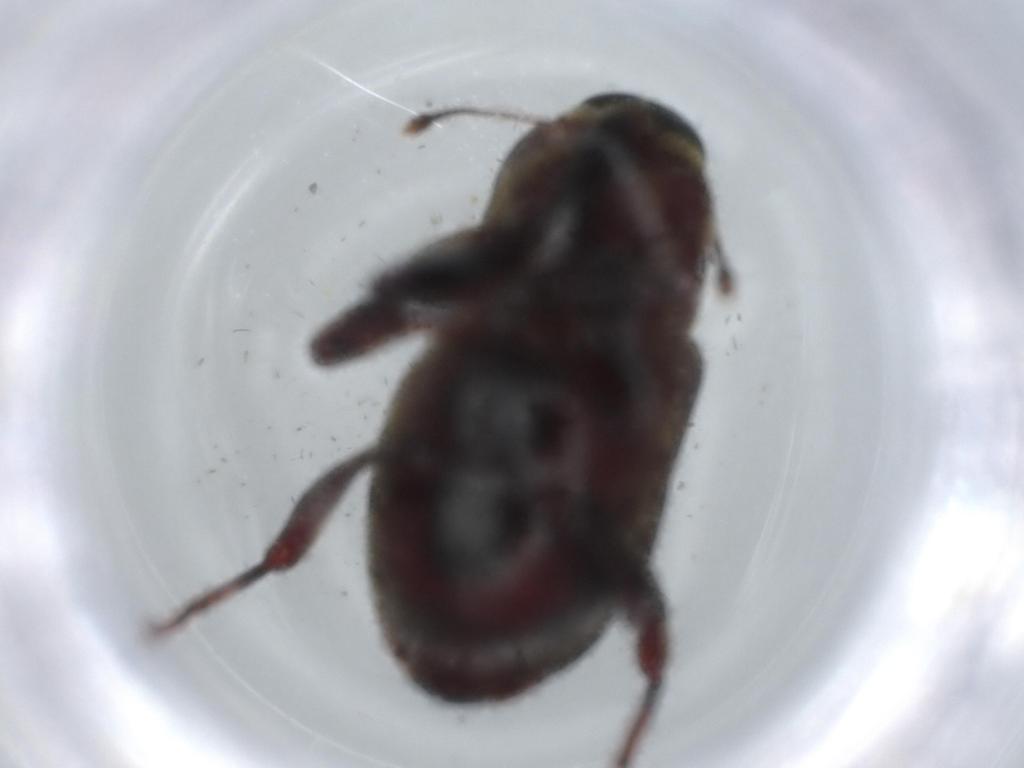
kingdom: Animalia
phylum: Arthropoda
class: Insecta
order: Coleoptera
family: Curculionidae
